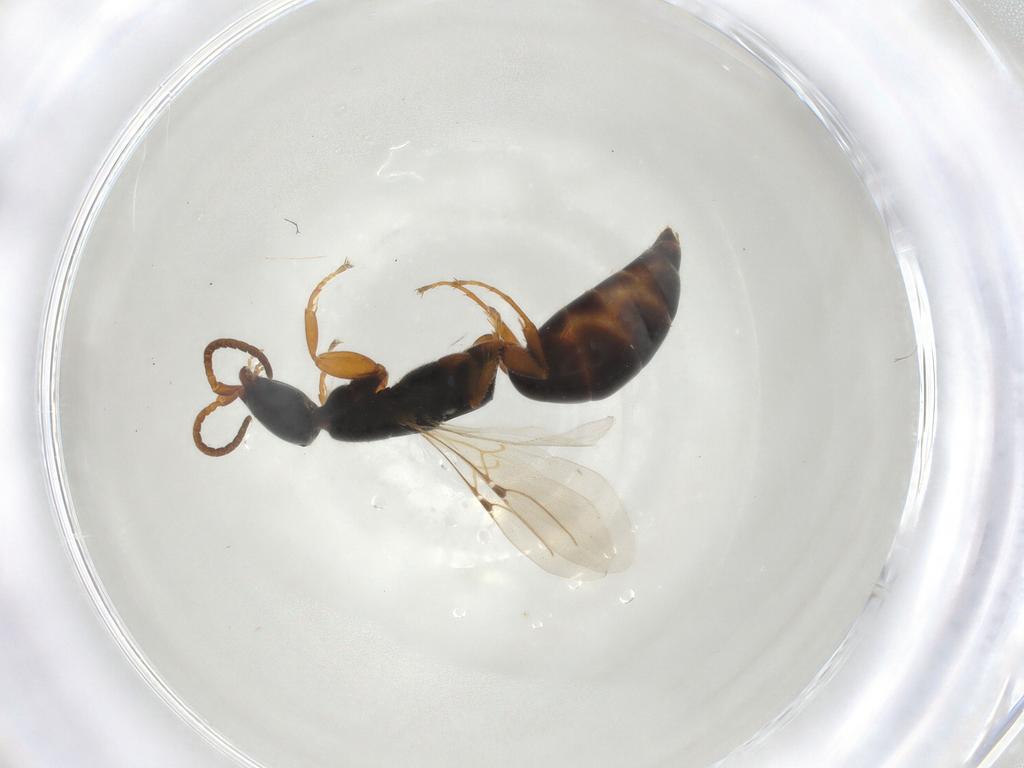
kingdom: Animalia
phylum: Arthropoda
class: Insecta
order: Hymenoptera
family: Bethylidae
